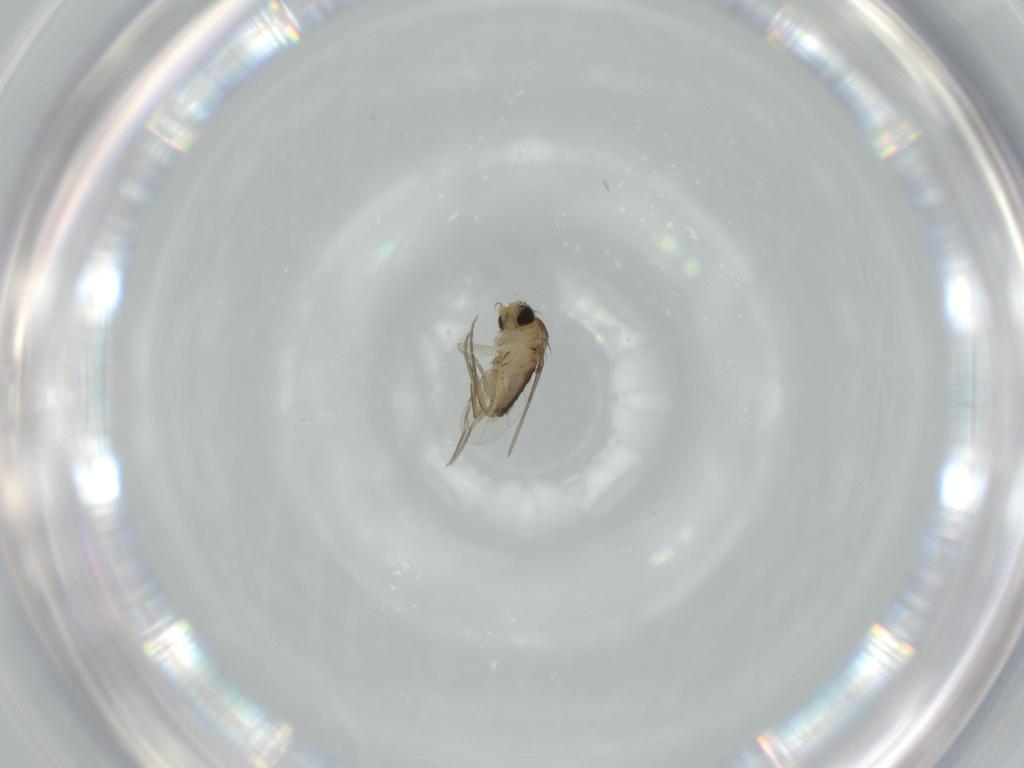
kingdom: Animalia
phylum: Arthropoda
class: Insecta
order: Diptera
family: Phoridae
